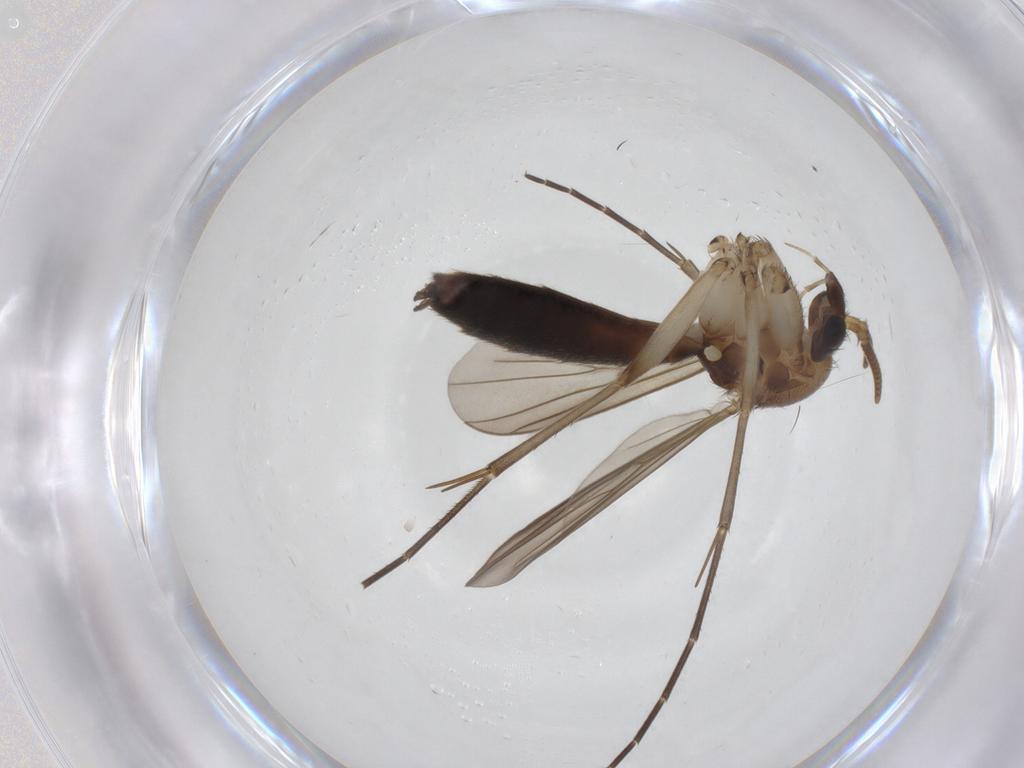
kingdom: Animalia
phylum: Arthropoda
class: Insecta
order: Diptera
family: Mycetophilidae
